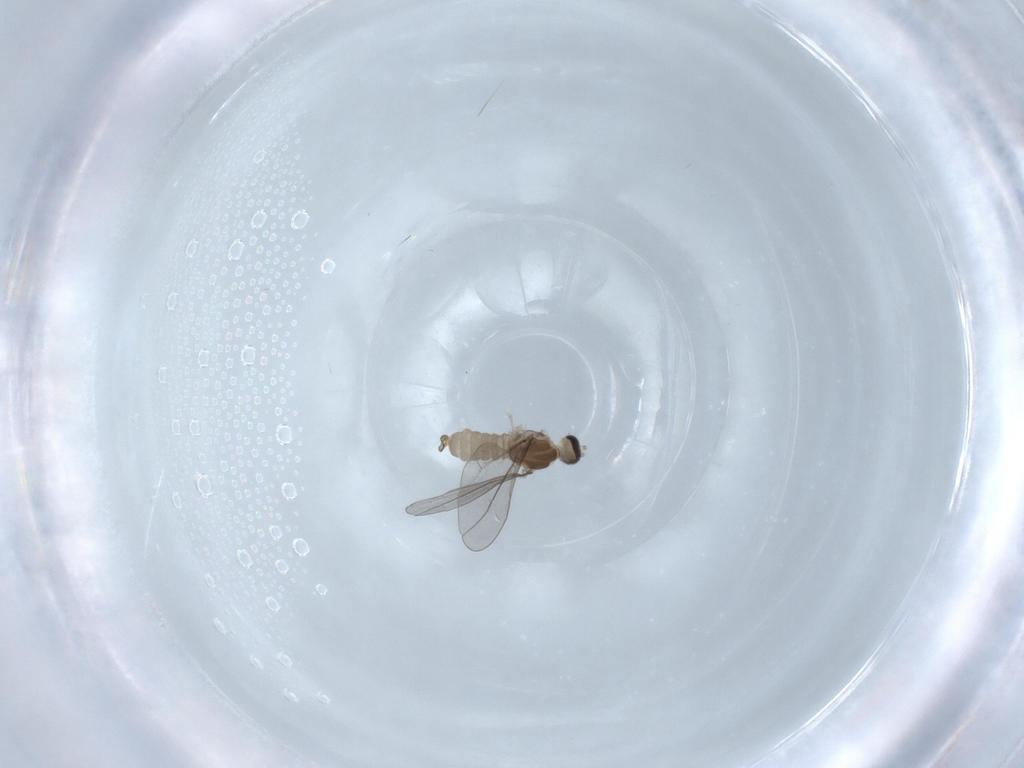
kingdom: Animalia
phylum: Arthropoda
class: Insecta
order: Diptera
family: Cecidomyiidae
